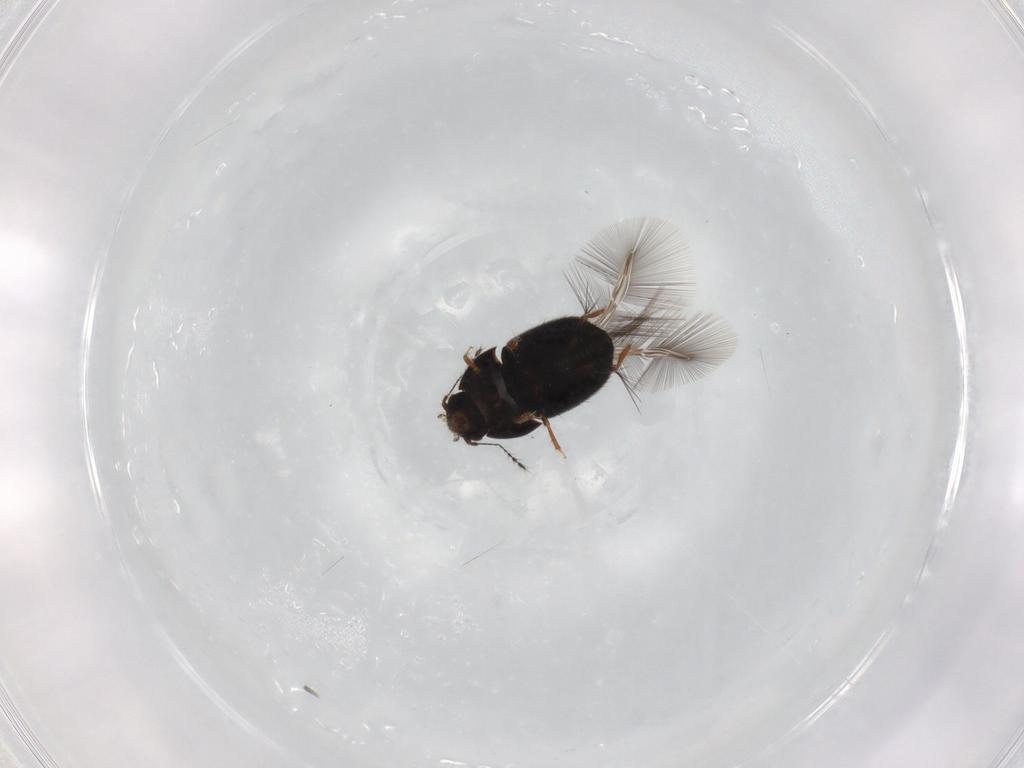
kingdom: Animalia
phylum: Arthropoda
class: Insecta
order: Coleoptera
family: Ptiliidae
